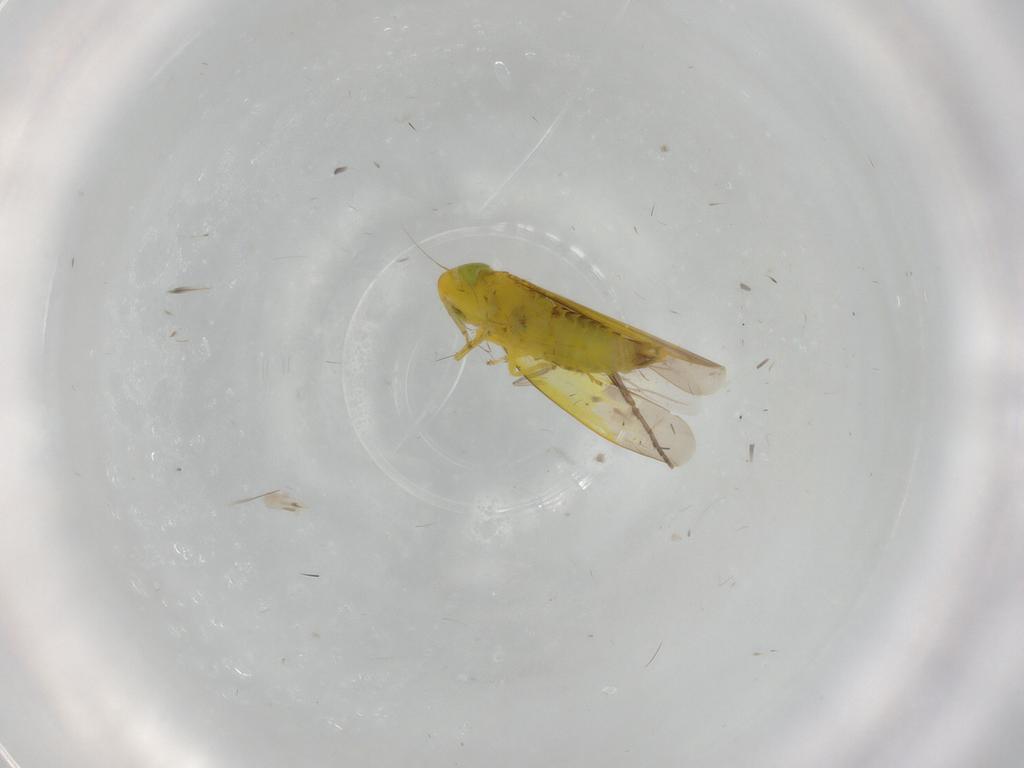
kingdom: Animalia
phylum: Arthropoda
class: Insecta
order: Hemiptera
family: Cicadellidae
